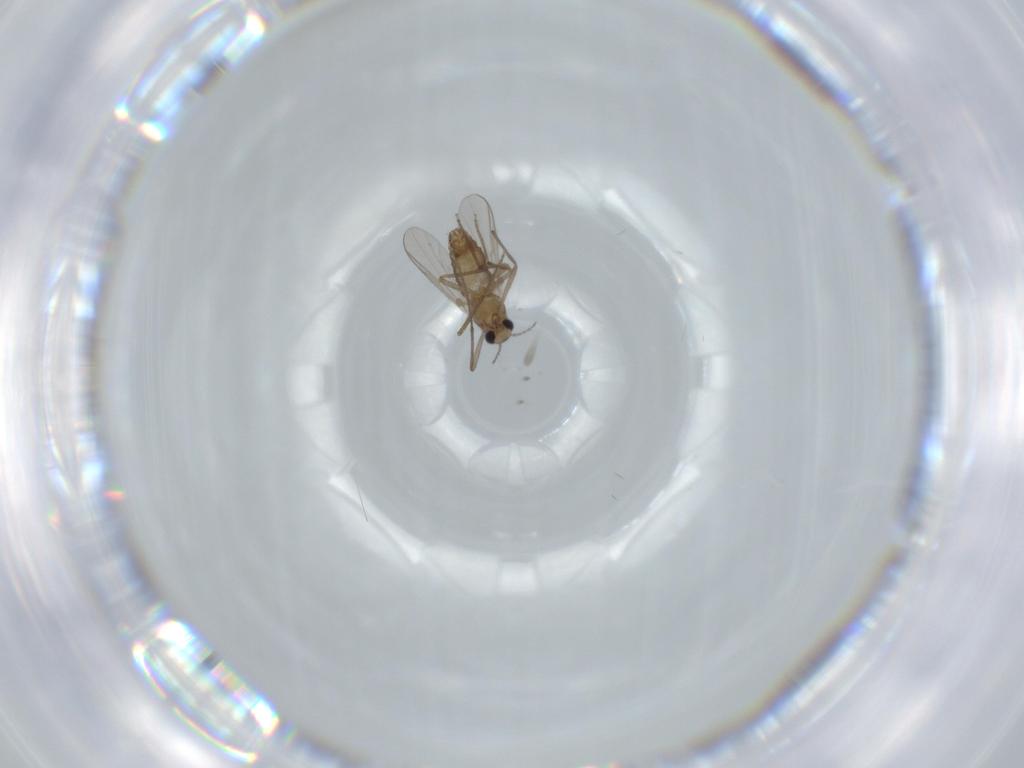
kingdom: Animalia
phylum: Arthropoda
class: Insecta
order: Diptera
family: Chironomidae
